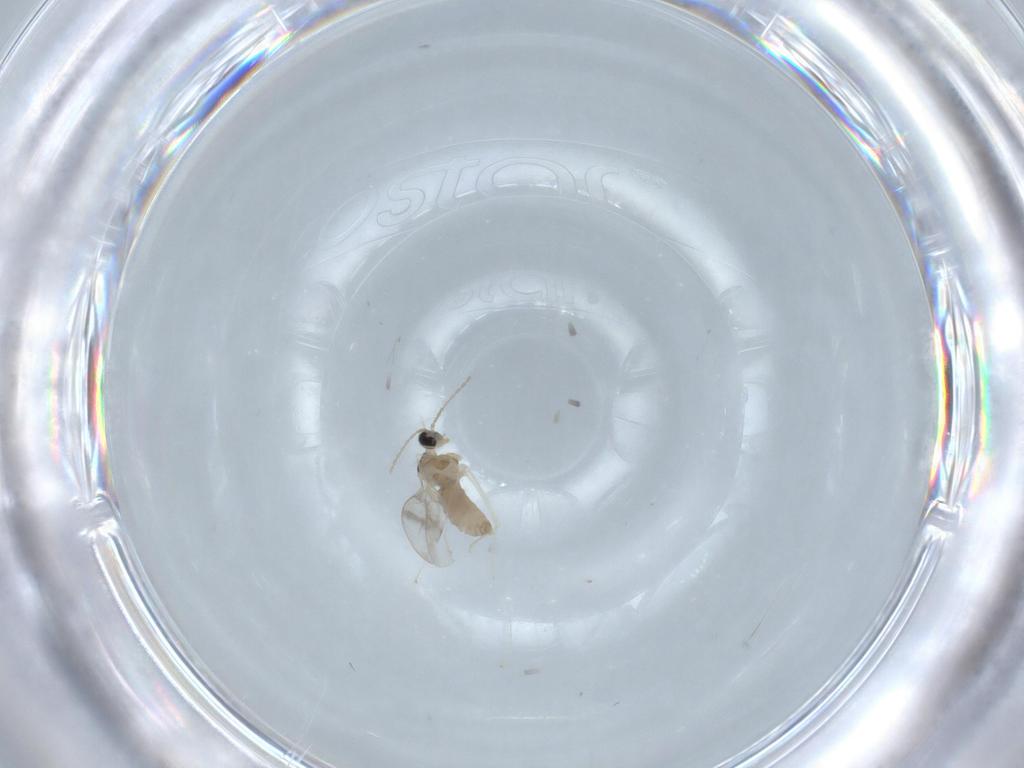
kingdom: Animalia
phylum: Arthropoda
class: Insecta
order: Diptera
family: Cecidomyiidae
